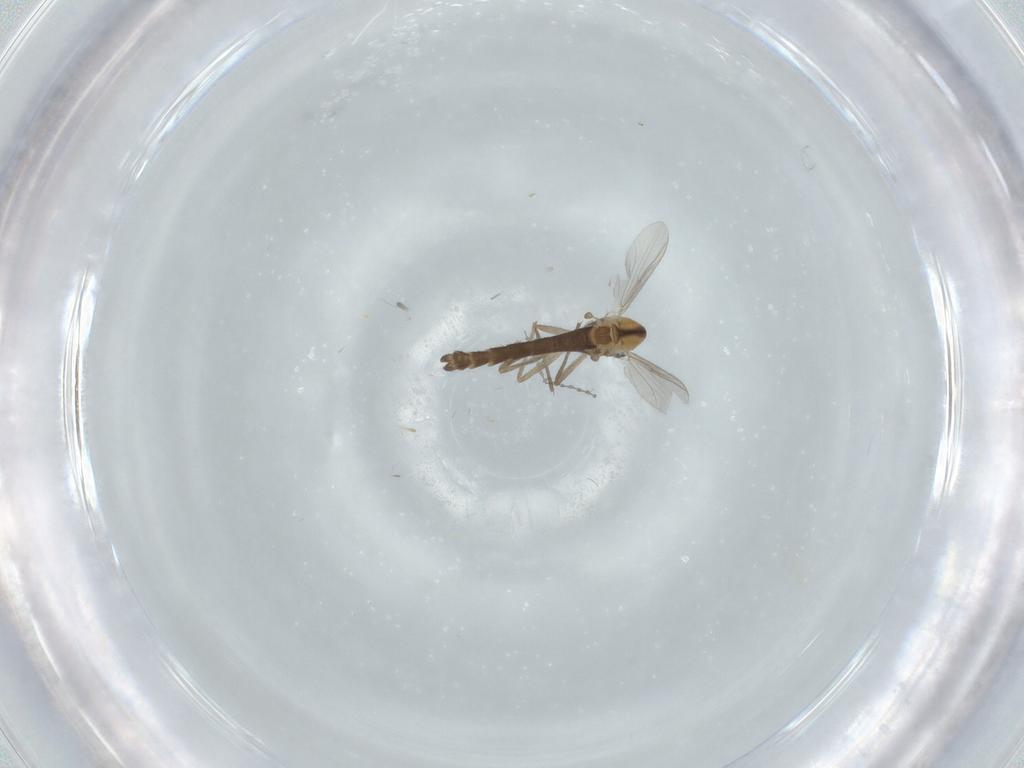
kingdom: Animalia
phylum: Arthropoda
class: Insecta
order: Diptera
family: Chironomidae
